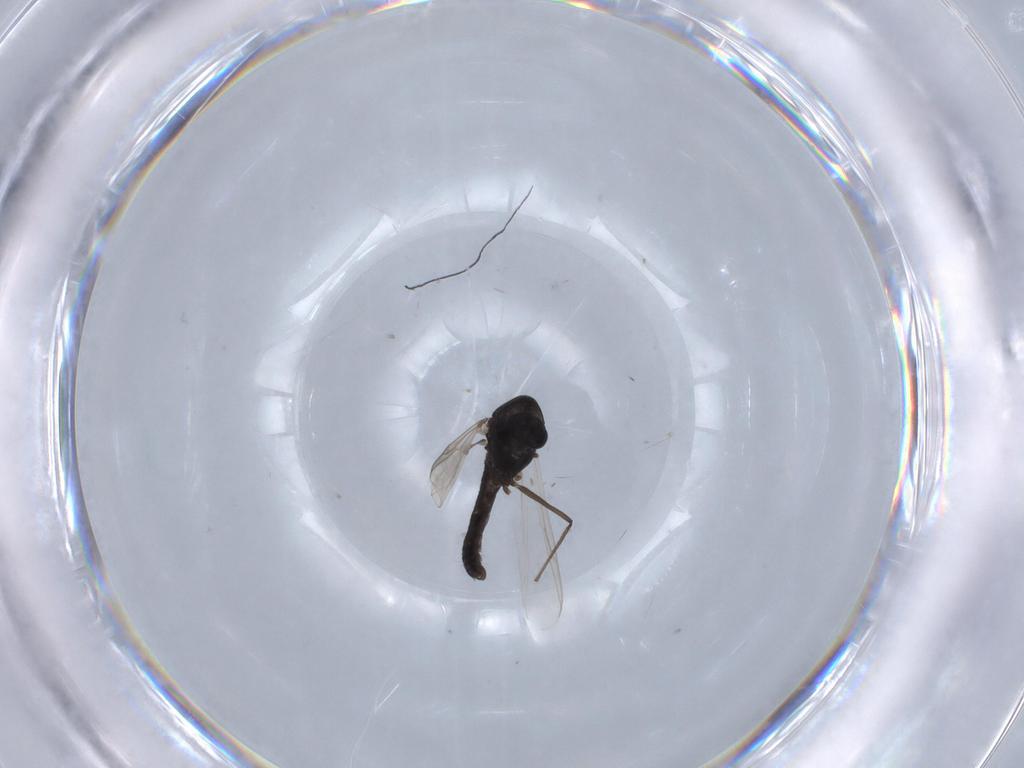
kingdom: Animalia
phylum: Arthropoda
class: Insecta
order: Diptera
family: Chironomidae
